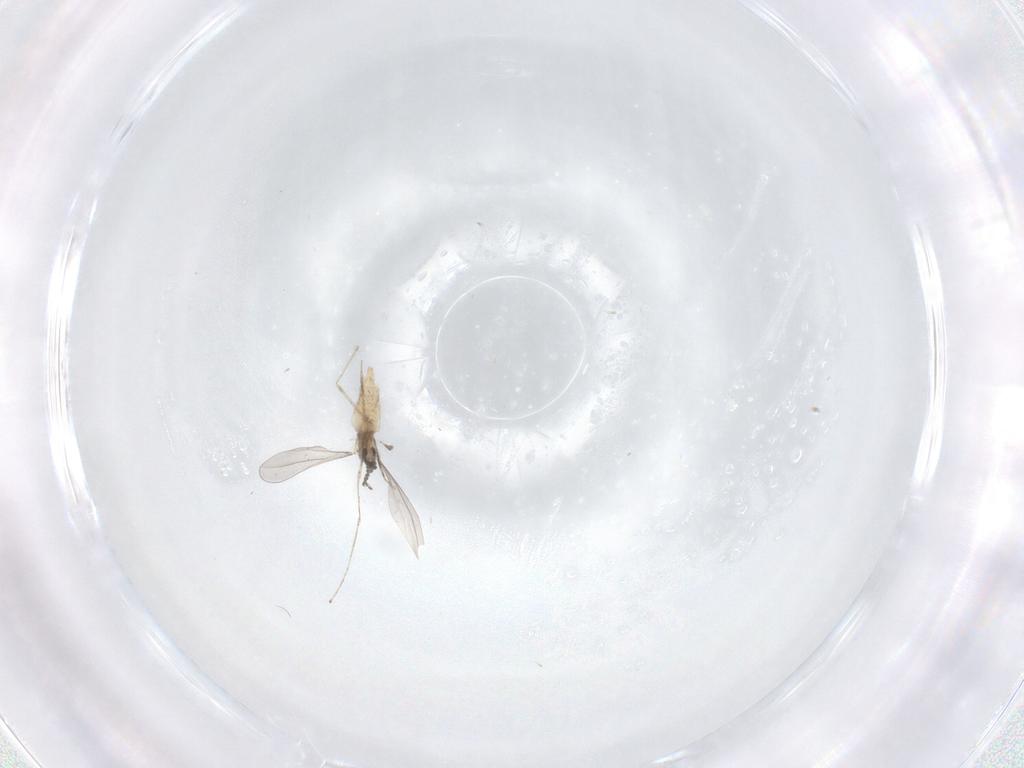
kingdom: Animalia
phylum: Arthropoda
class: Insecta
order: Diptera
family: Cecidomyiidae
